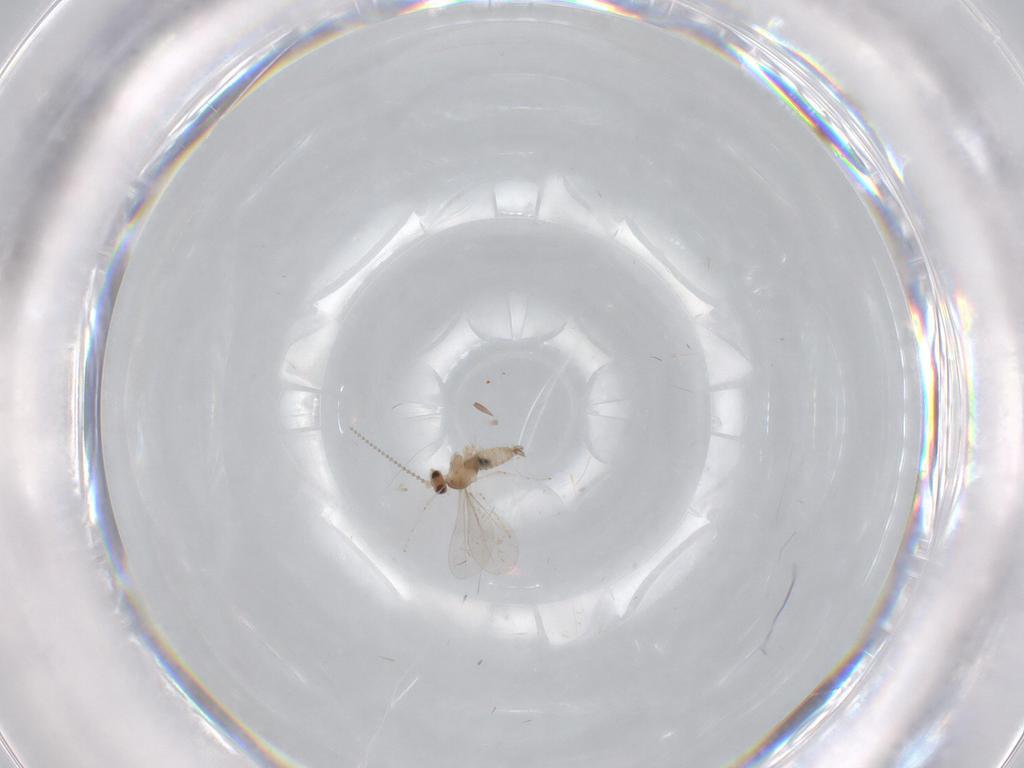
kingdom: Animalia
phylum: Arthropoda
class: Insecta
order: Diptera
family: Cecidomyiidae
